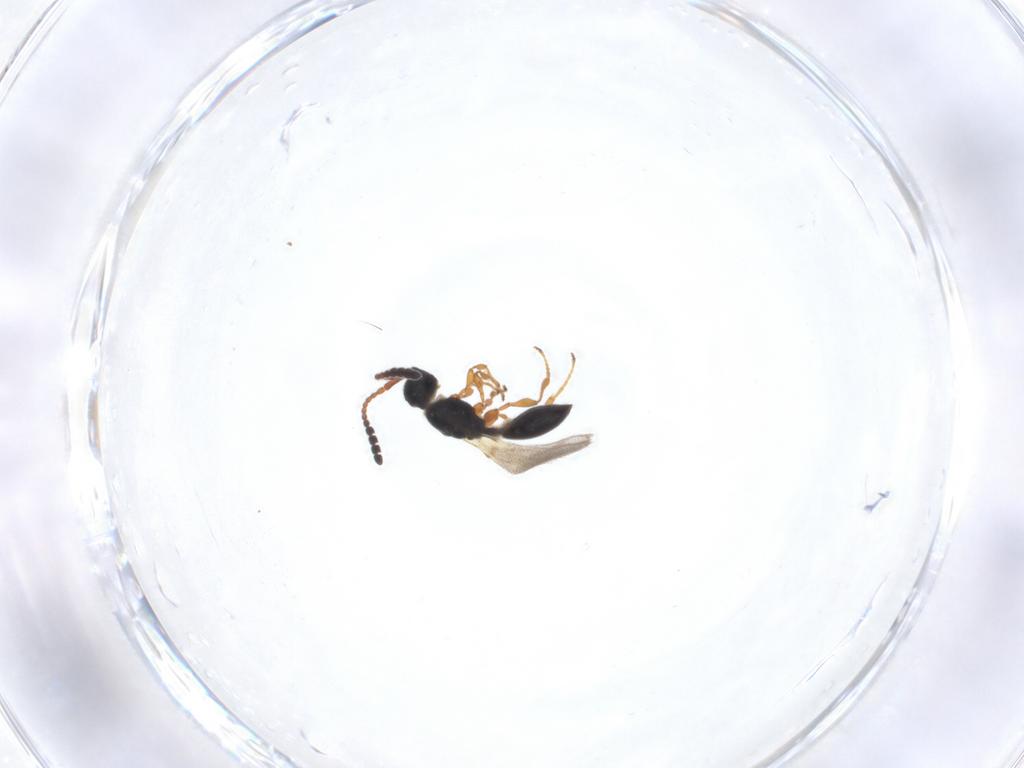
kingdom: Animalia
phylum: Arthropoda
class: Insecta
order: Hymenoptera
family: Diapriidae
